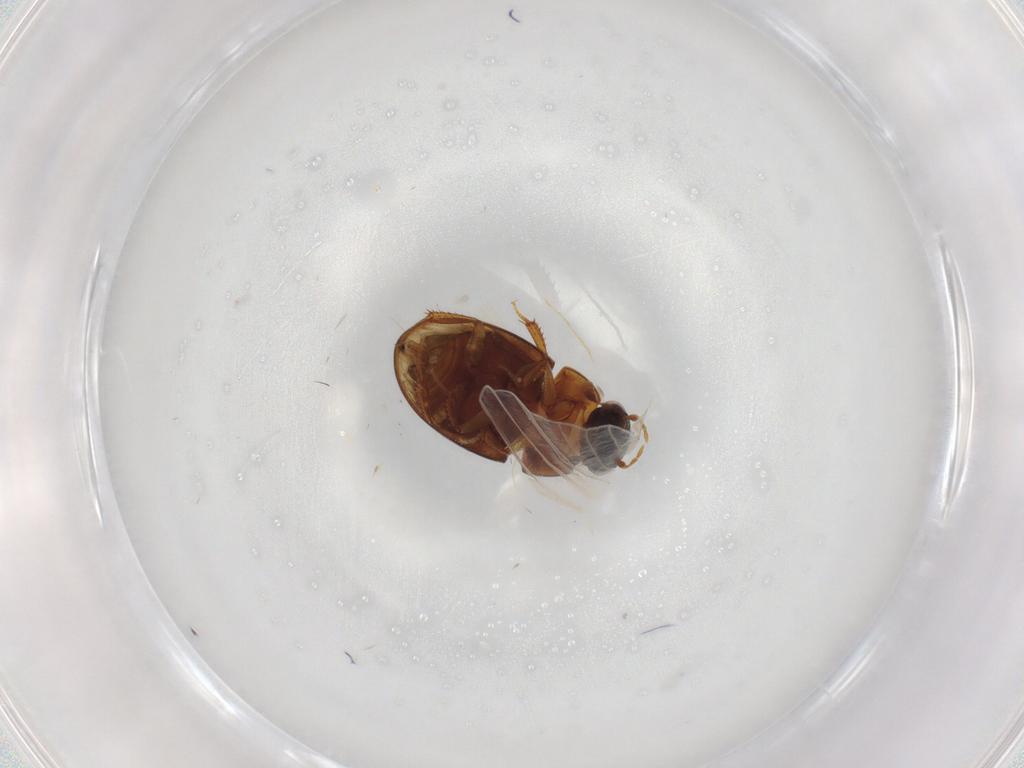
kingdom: Animalia
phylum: Arthropoda
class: Insecta
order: Coleoptera
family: Hydrophilidae
